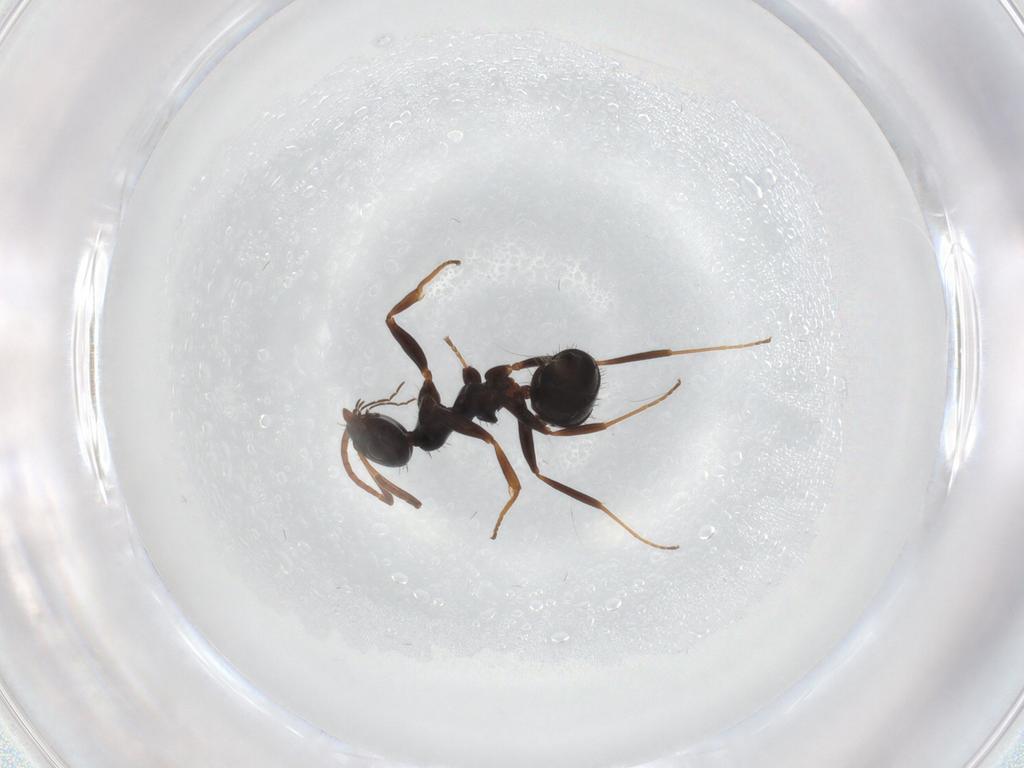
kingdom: Animalia
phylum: Arthropoda
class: Insecta
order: Hymenoptera
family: Formicidae
